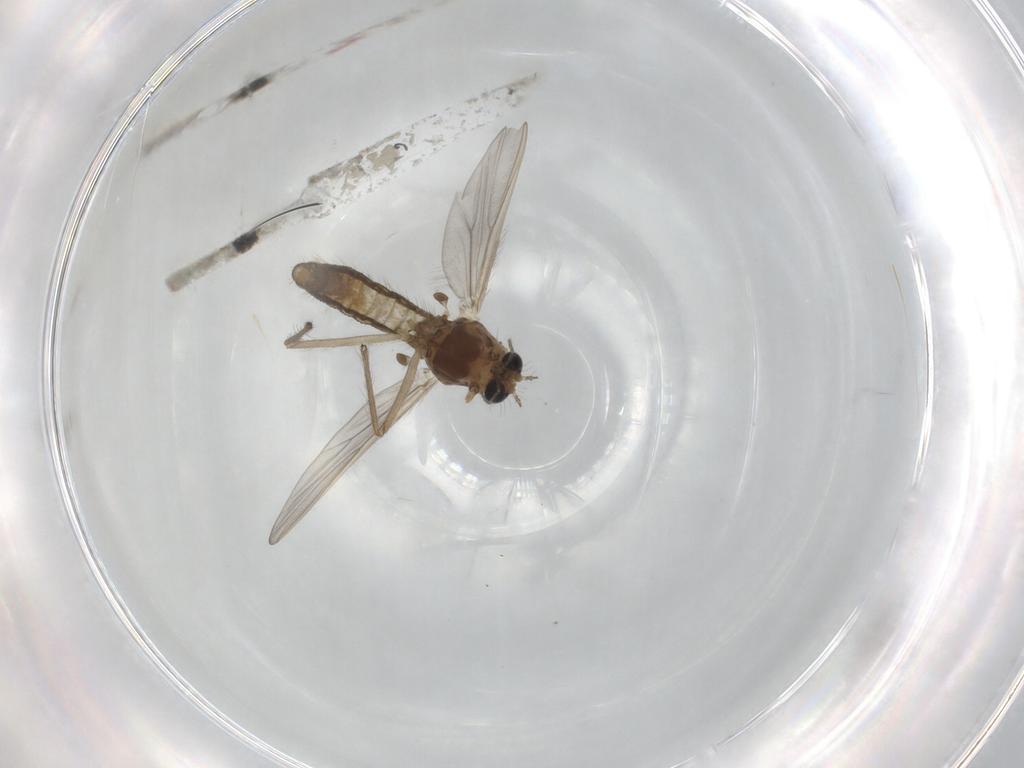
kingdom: Animalia
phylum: Arthropoda
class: Insecta
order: Diptera
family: Chironomidae
